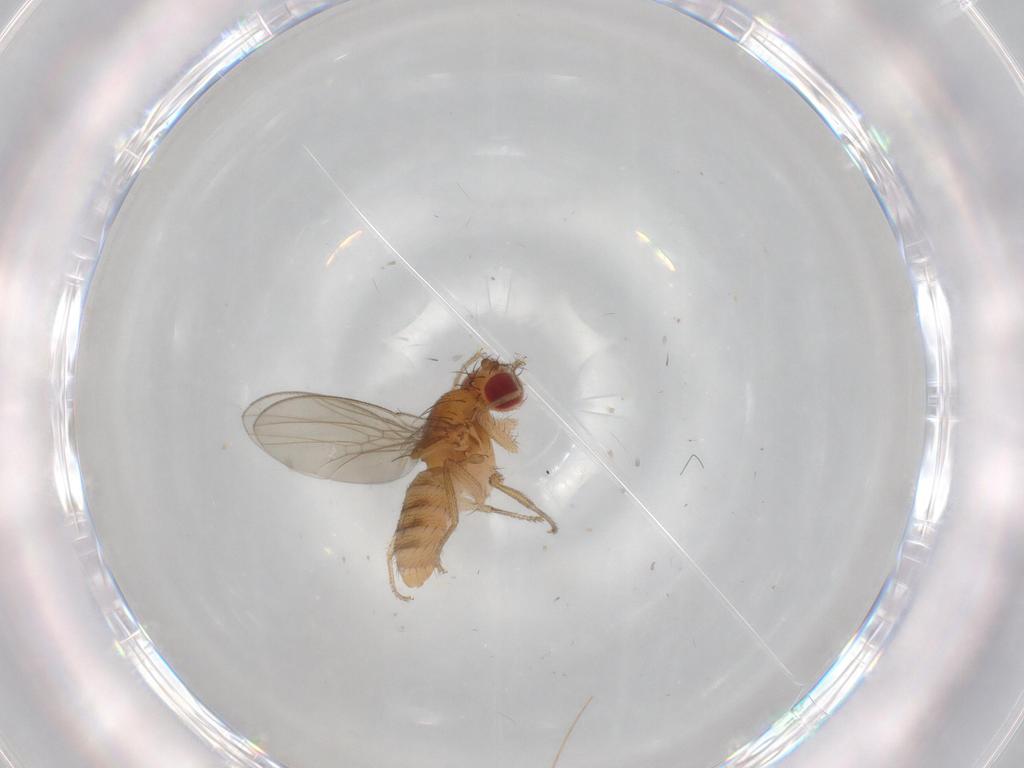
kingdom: Animalia
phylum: Arthropoda
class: Insecta
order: Diptera
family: Drosophilidae
